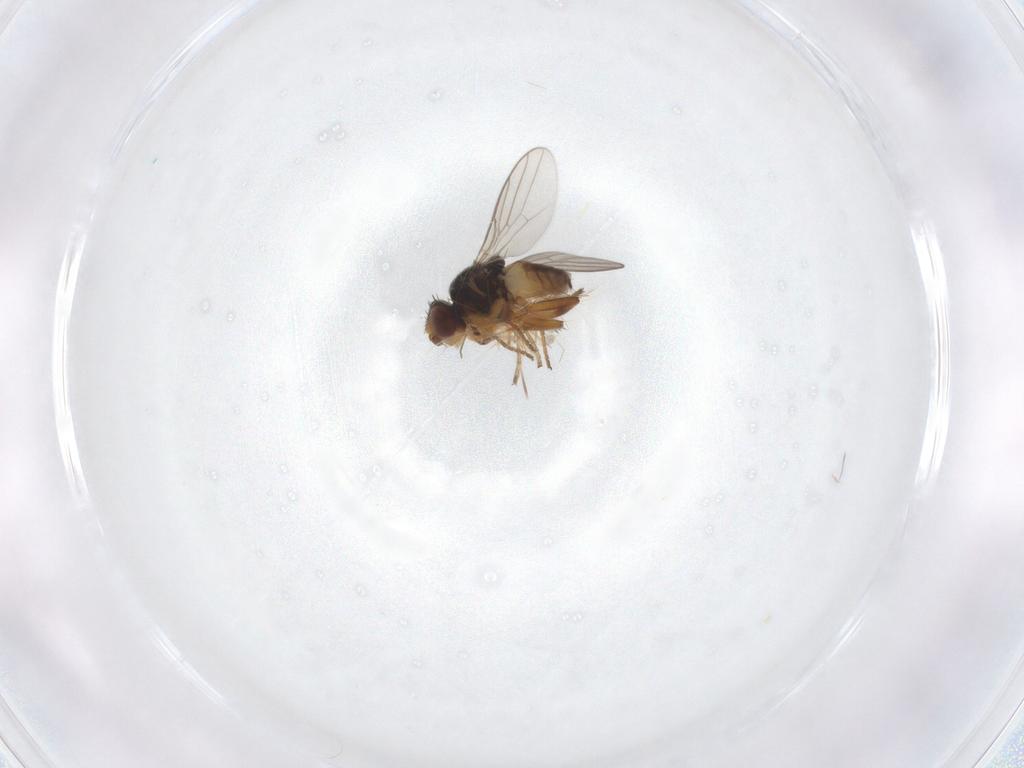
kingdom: Animalia
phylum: Arthropoda
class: Insecta
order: Diptera
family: Chloropidae
